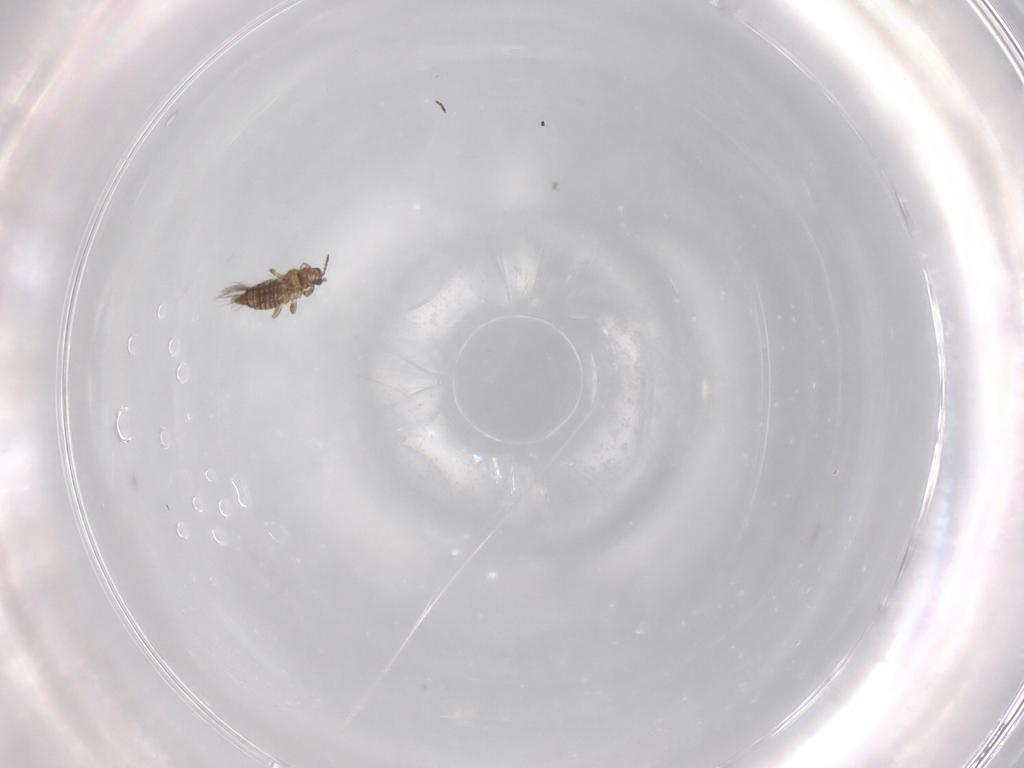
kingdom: Animalia
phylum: Arthropoda
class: Insecta
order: Thysanoptera
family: Thripidae
